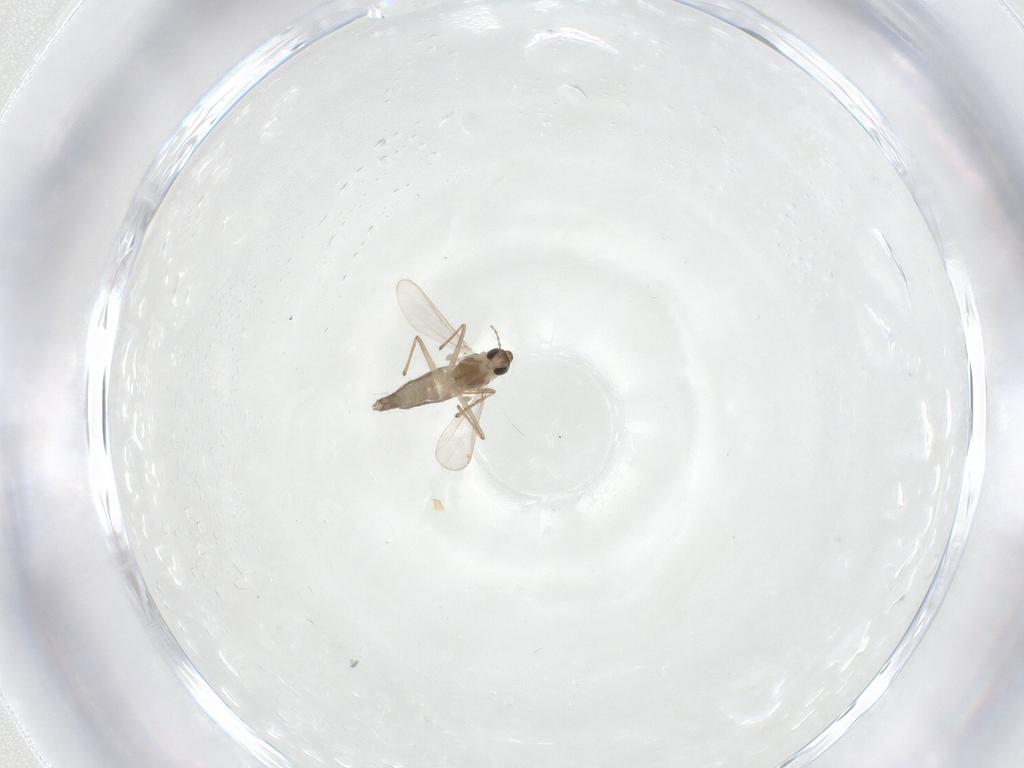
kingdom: Animalia
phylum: Arthropoda
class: Insecta
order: Diptera
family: Chironomidae
